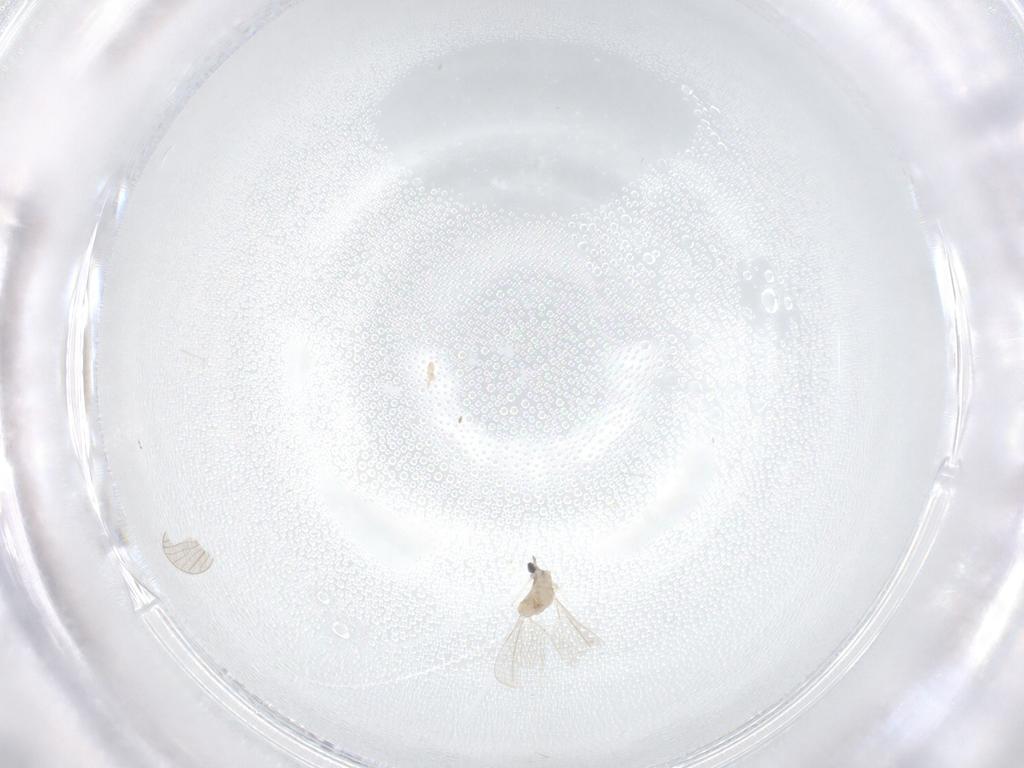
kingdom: Animalia
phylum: Arthropoda
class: Insecta
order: Diptera
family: Cecidomyiidae
